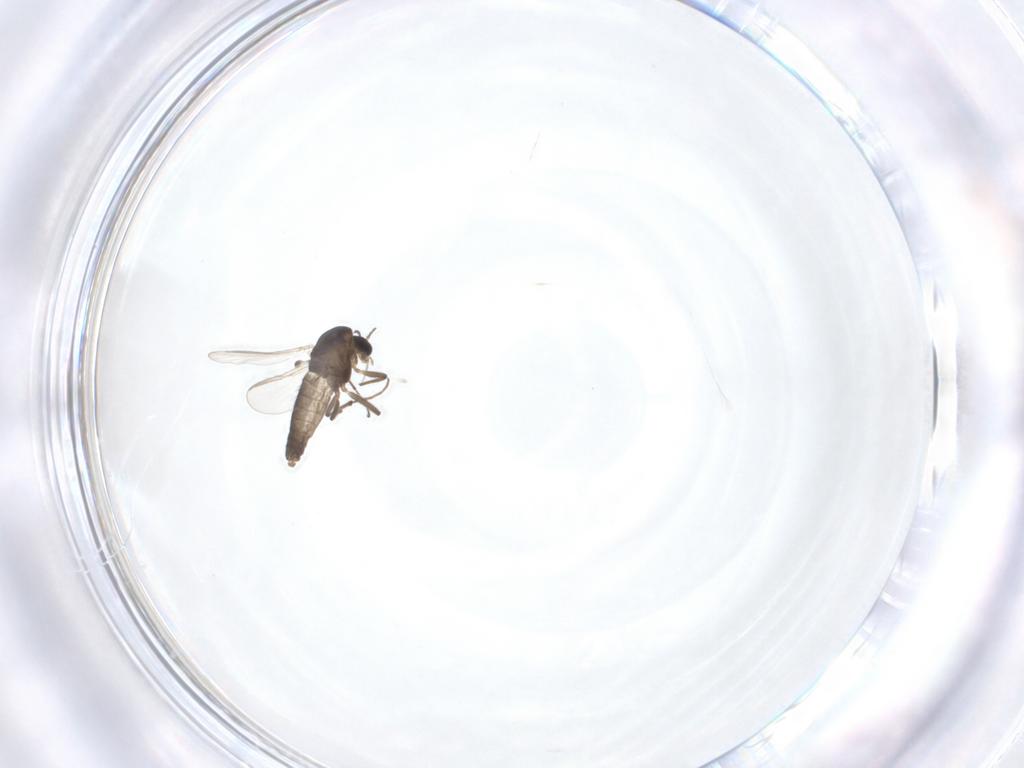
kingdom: Animalia
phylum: Arthropoda
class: Insecta
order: Diptera
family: Chironomidae
